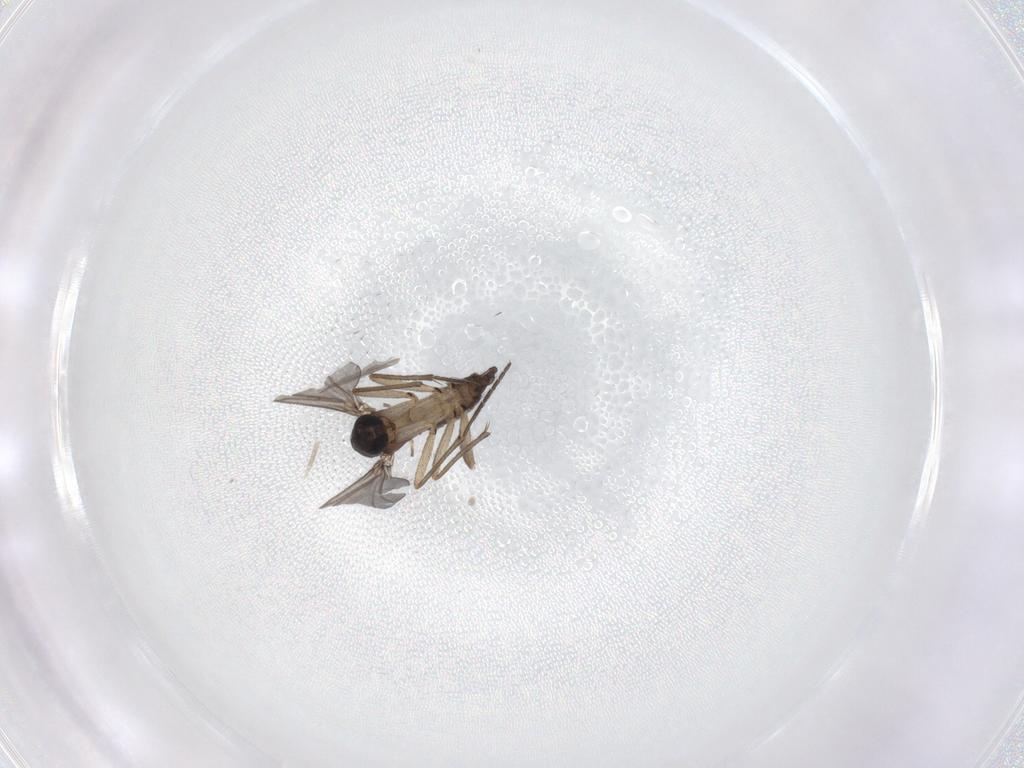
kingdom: Animalia
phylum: Arthropoda
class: Insecta
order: Diptera
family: Sciaridae
